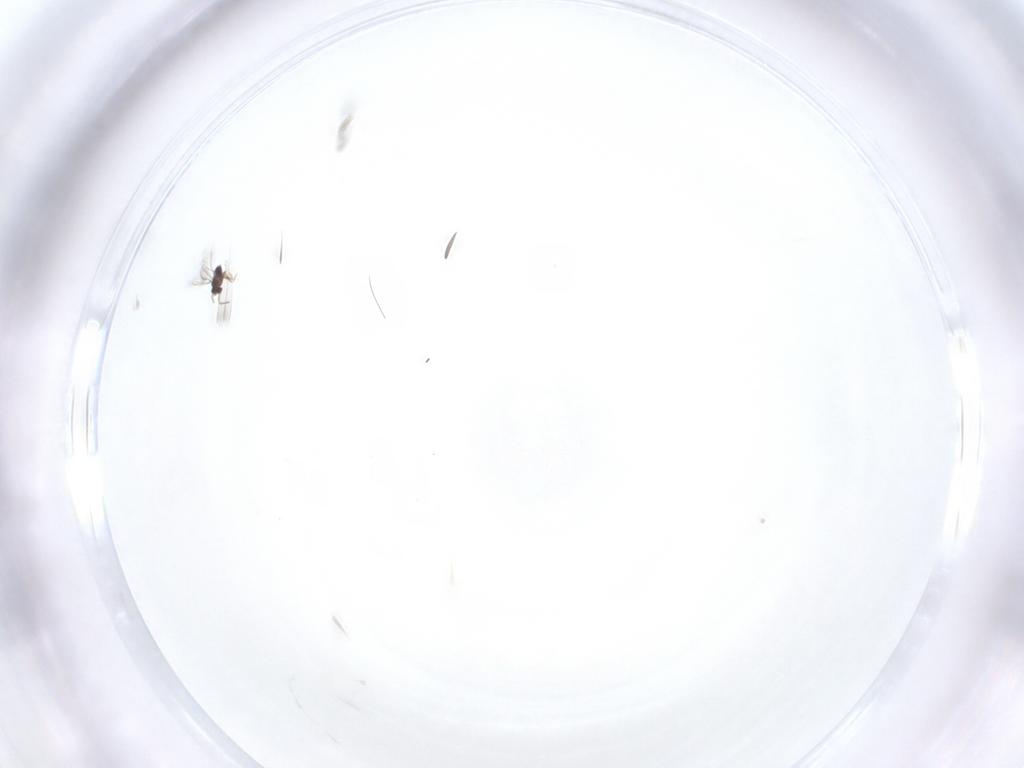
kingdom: Animalia
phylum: Arthropoda
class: Insecta
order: Hymenoptera
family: Mymaridae
